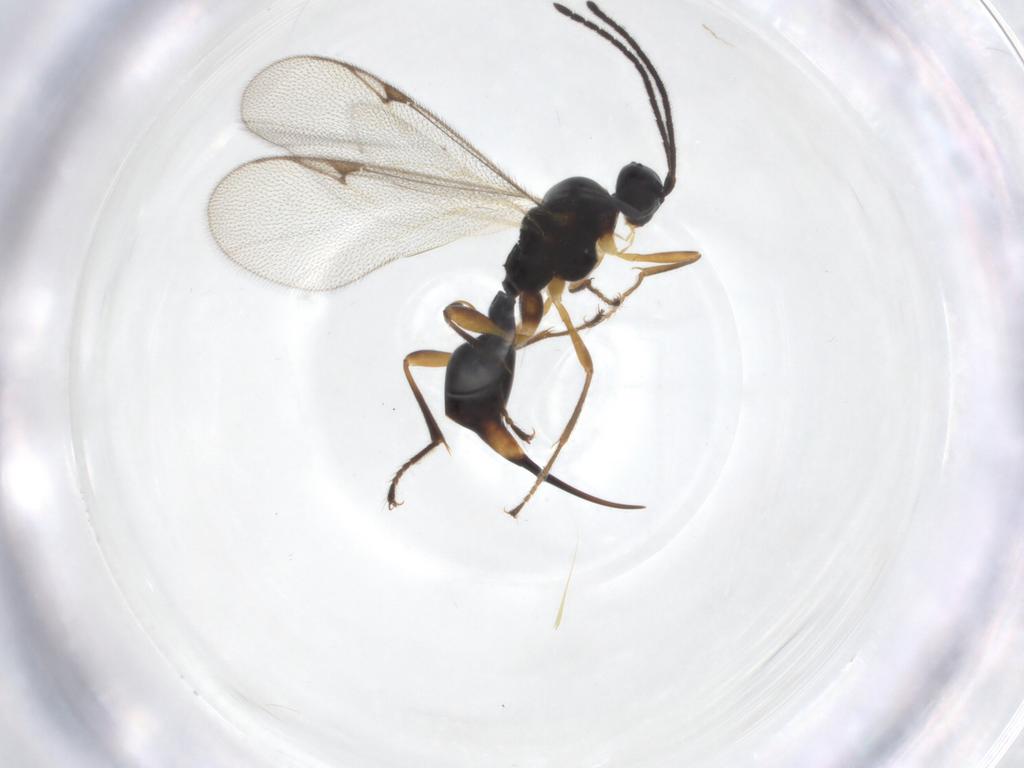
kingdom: Animalia
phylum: Arthropoda
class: Insecta
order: Hymenoptera
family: Proctotrupidae
